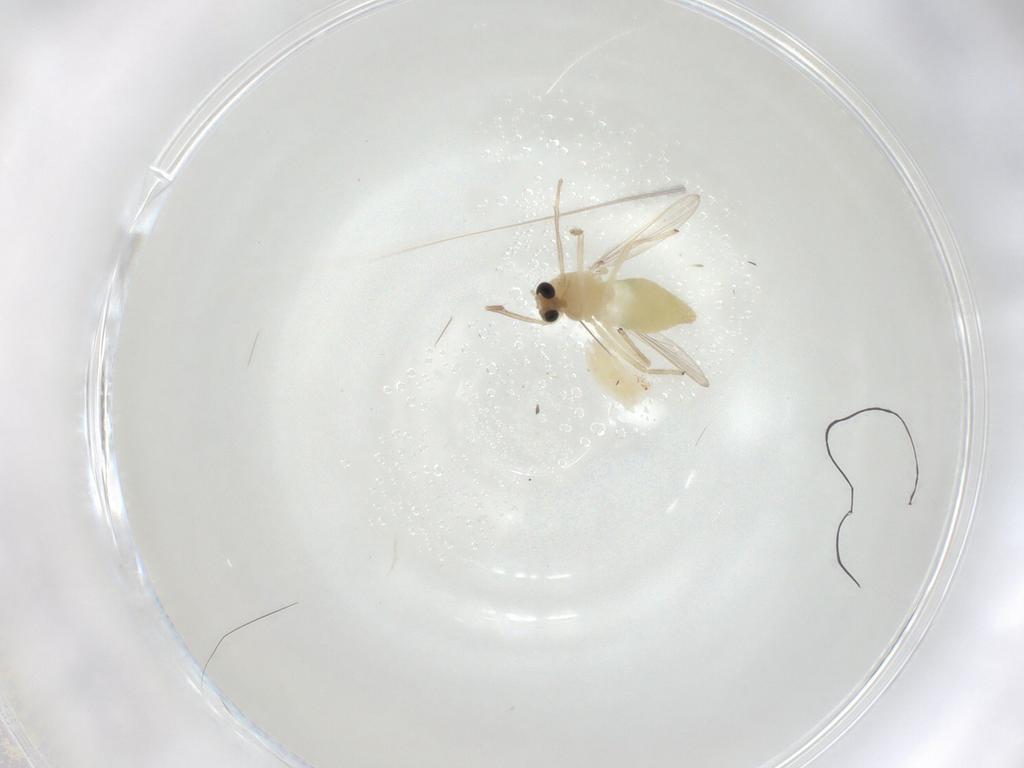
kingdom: Animalia
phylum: Arthropoda
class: Insecta
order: Diptera
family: Chironomidae
